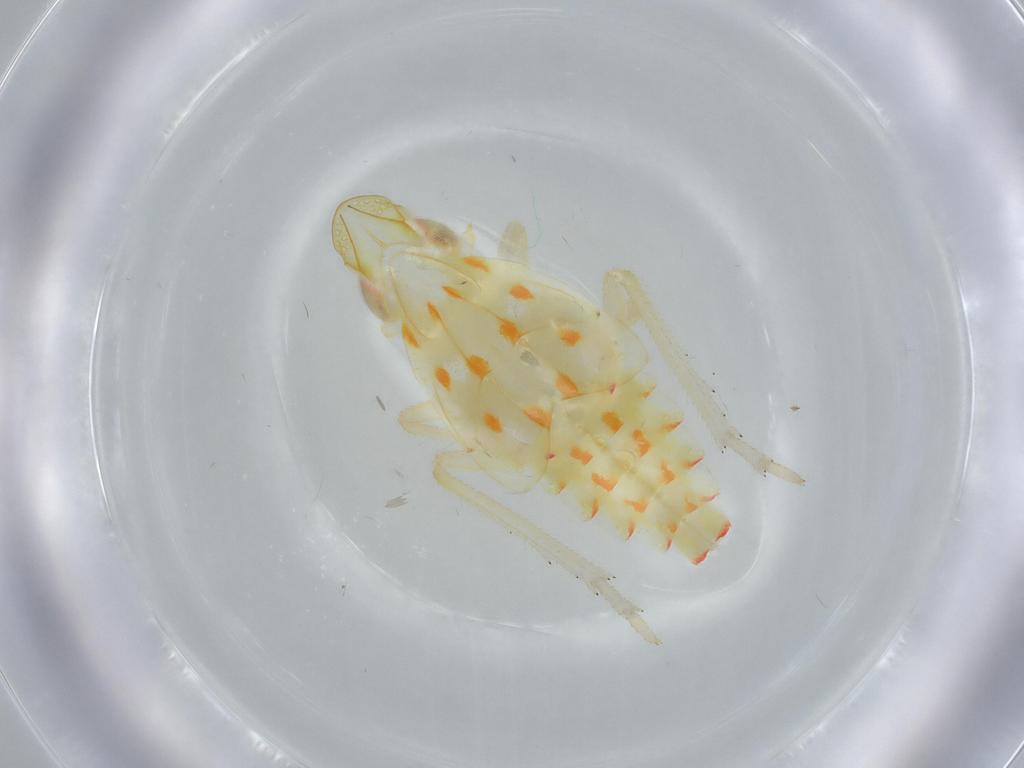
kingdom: Animalia
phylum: Arthropoda
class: Insecta
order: Hemiptera
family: Tropiduchidae
